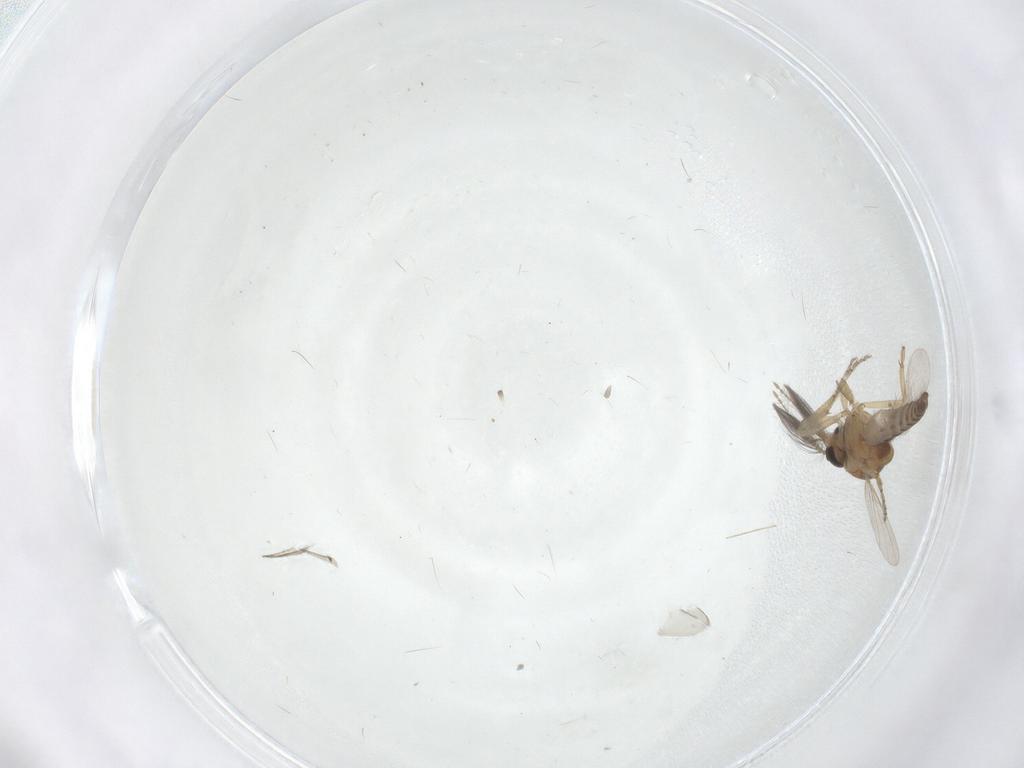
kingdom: Animalia
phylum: Arthropoda
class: Insecta
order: Diptera
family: Ceratopogonidae
